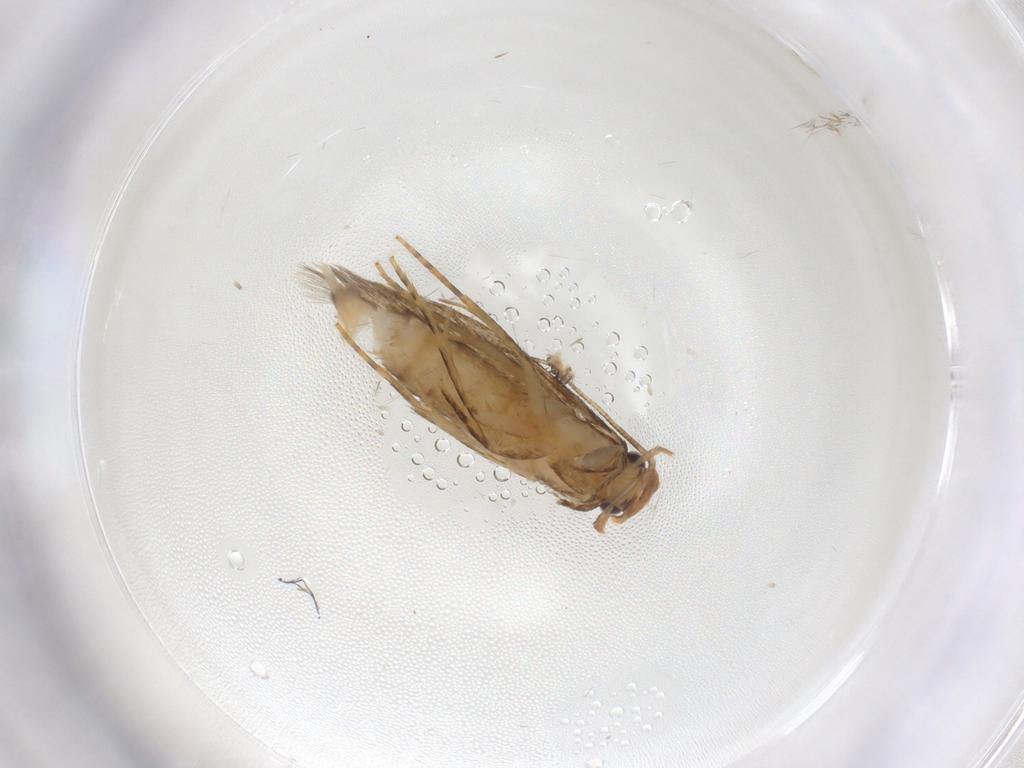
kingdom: Animalia
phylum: Arthropoda
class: Insecta
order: Lepidoptera
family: Tineidae
